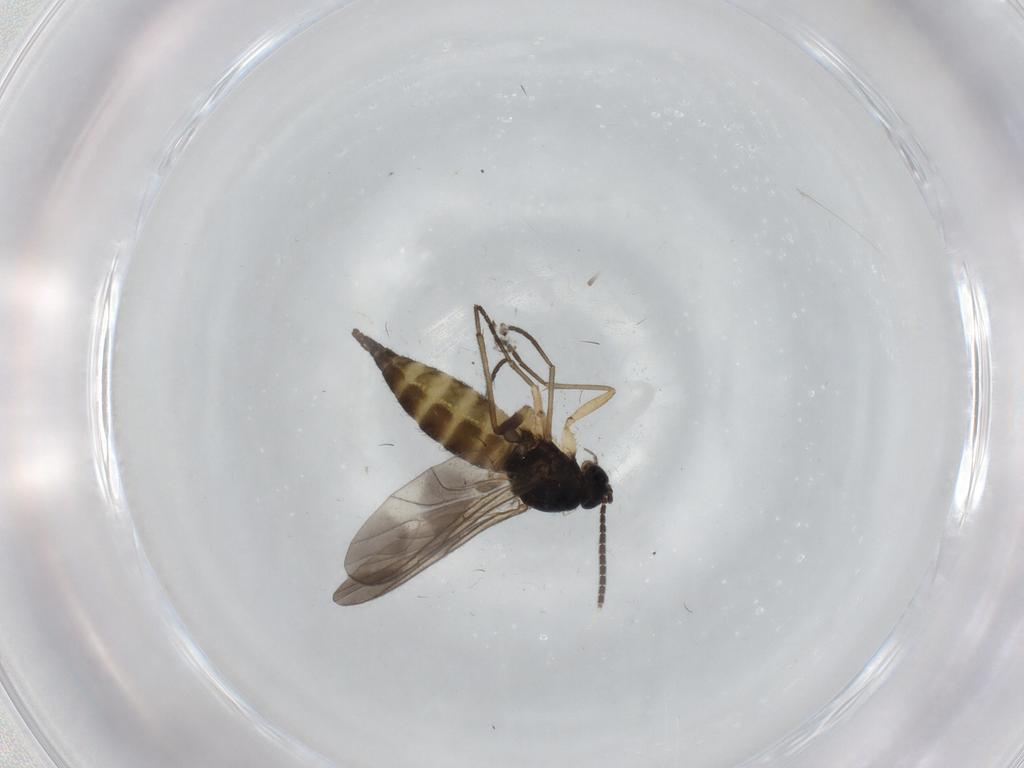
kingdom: Animalia
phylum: Arthropoda
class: Insecta
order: Diptera
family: Sciaridae
